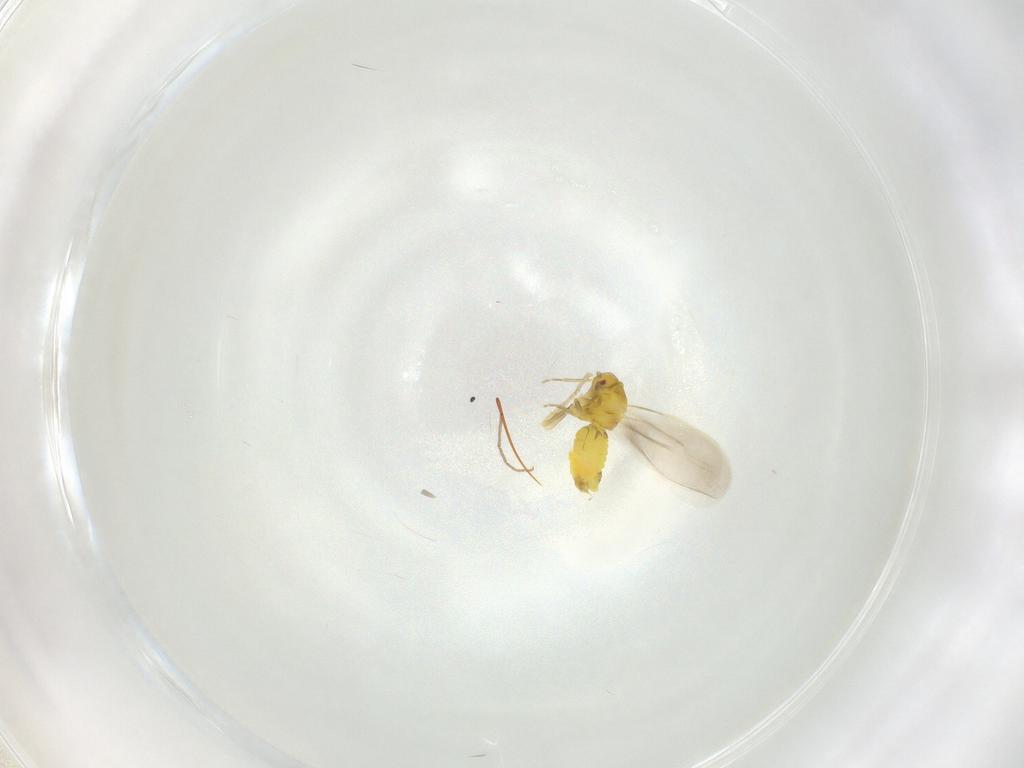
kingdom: Animalia
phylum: Arthropoda
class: Insecta
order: Hemiptera
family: Aleyrodidae
